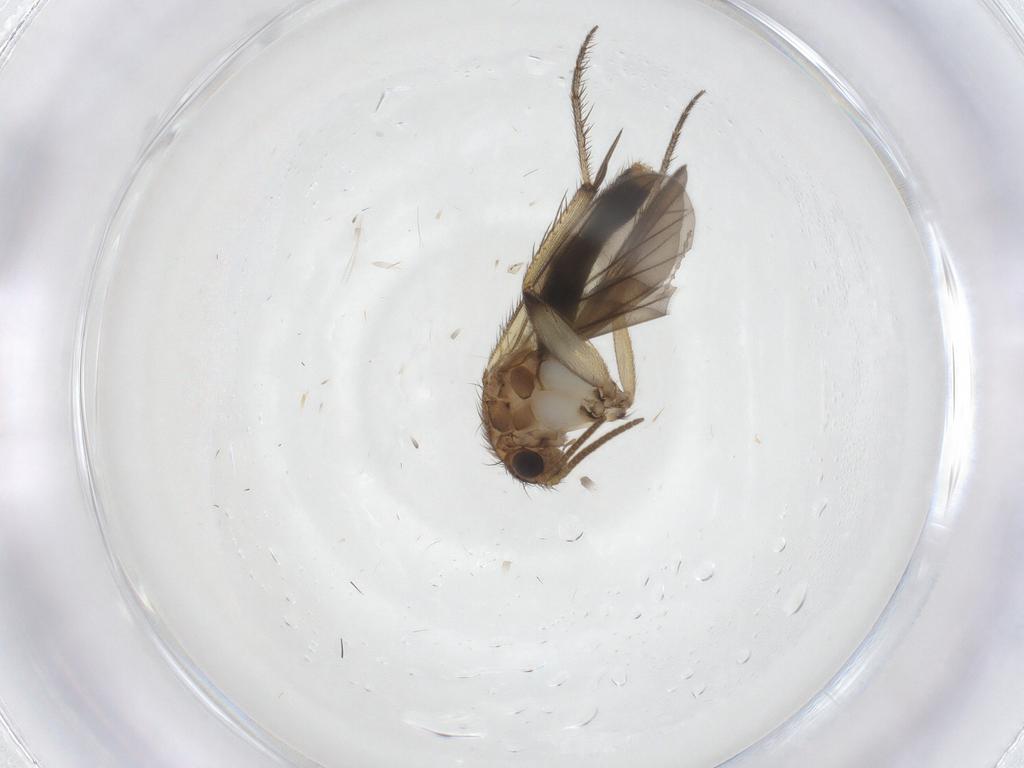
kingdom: Animalia
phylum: Arthropoda
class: Insecta
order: Diptera
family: Mycetophilidae
